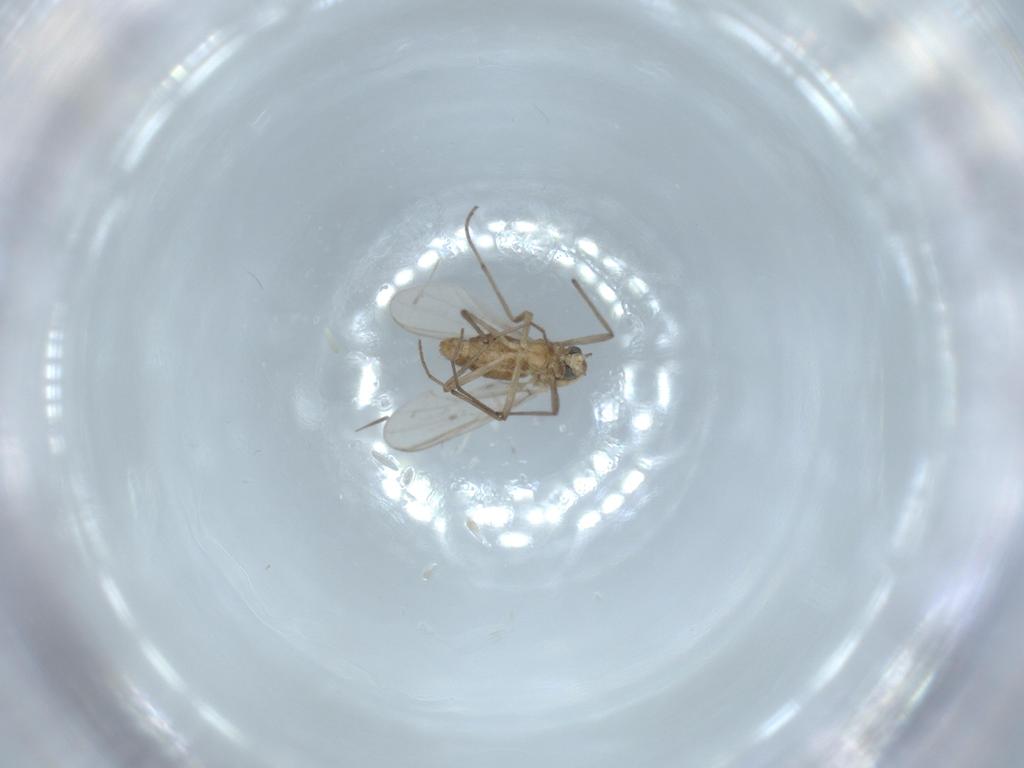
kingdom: Animalia
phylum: Arthropoda
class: Insecta
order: Diptera
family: Chironomidae
